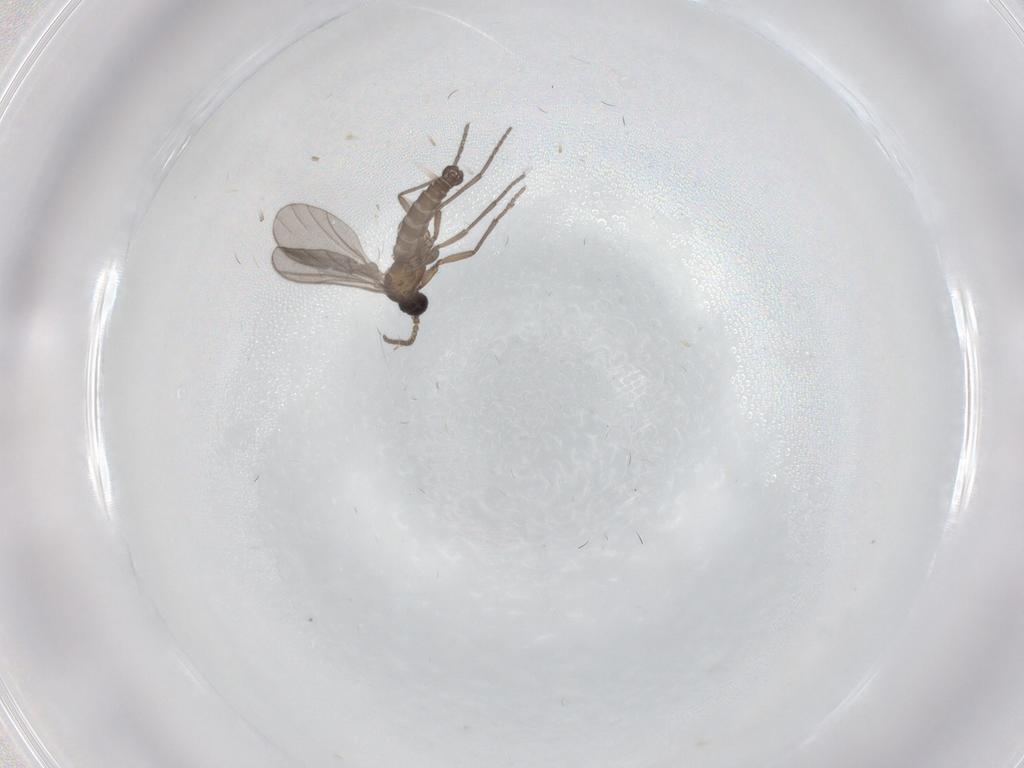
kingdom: Animalia
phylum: Arthropoda
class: Insecta
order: Diptera
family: Sciaridae
